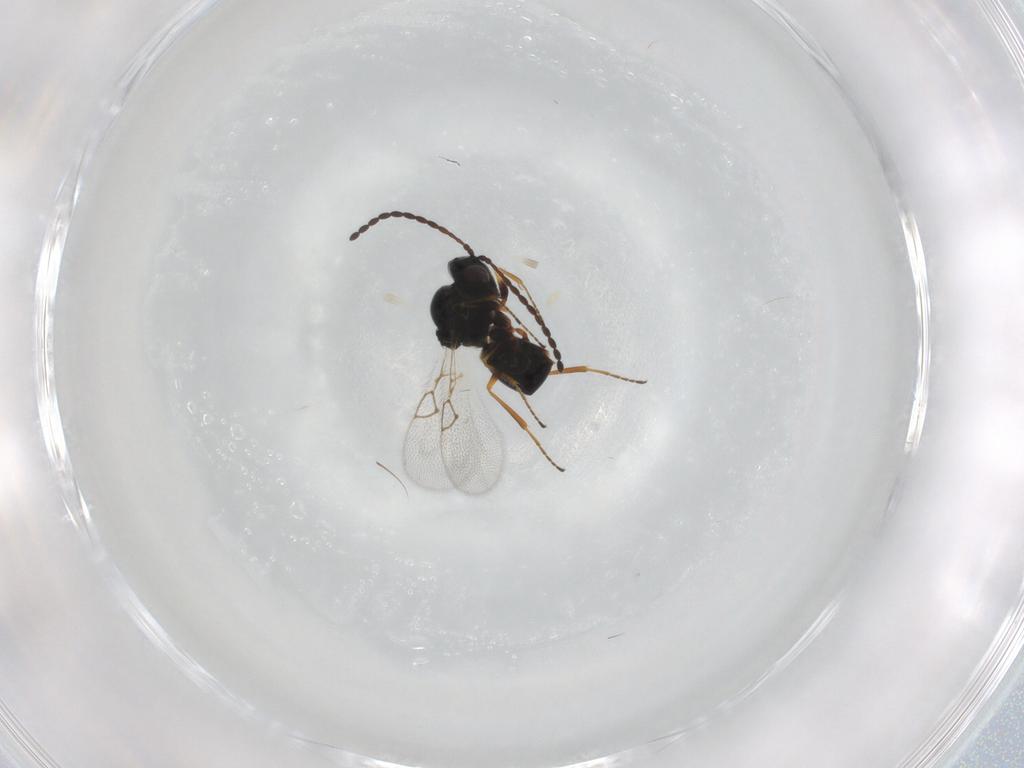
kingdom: Animalia
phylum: Arthropoda
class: Insecta
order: Hymenoptera
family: Figitidae
